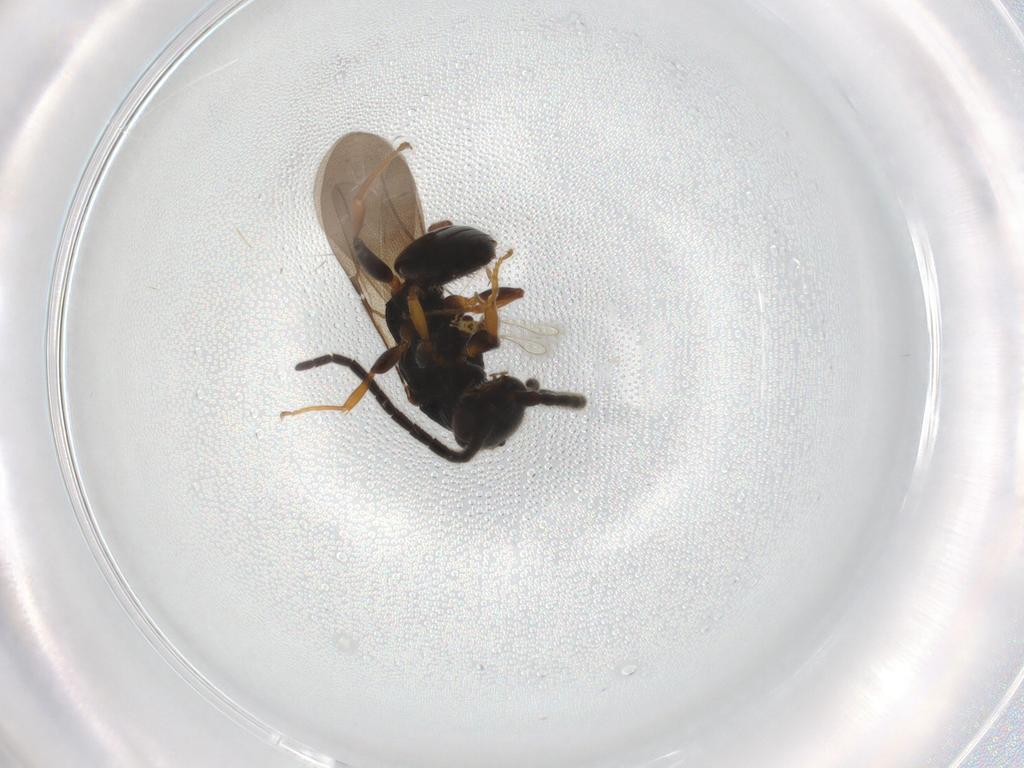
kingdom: Animalia
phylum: Arthropoda
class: Insecta
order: Hymenoptera
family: Bethylidae
